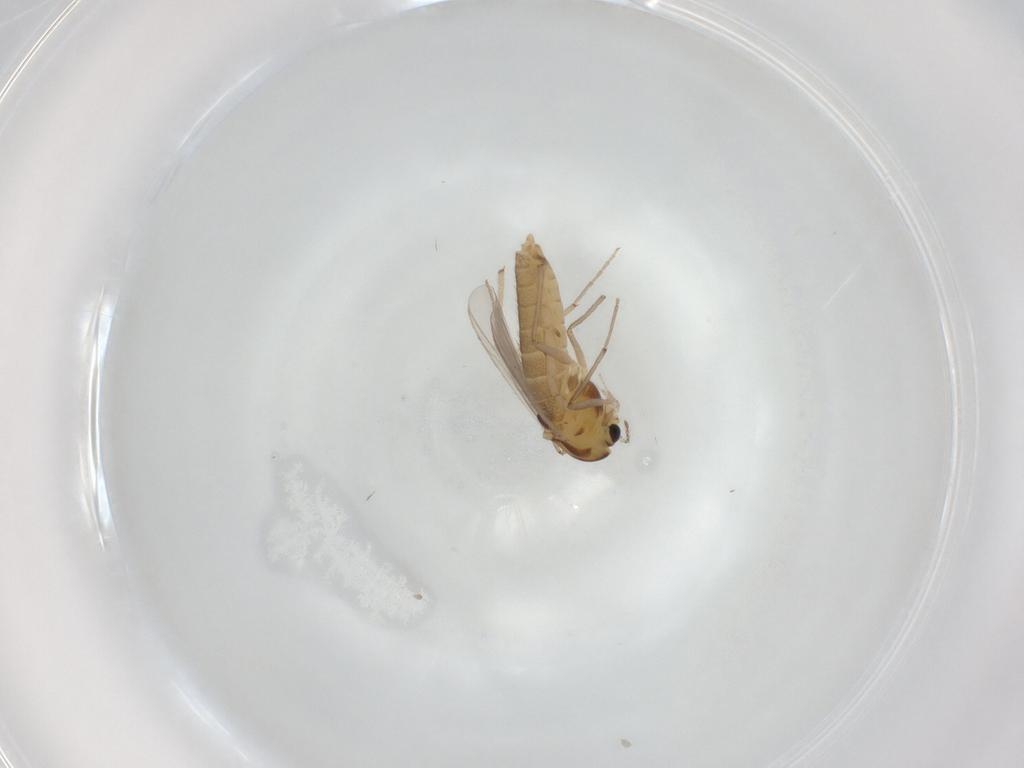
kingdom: Animalia
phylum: Arthropoda
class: Insecta
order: Diptera
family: Chironomidae
